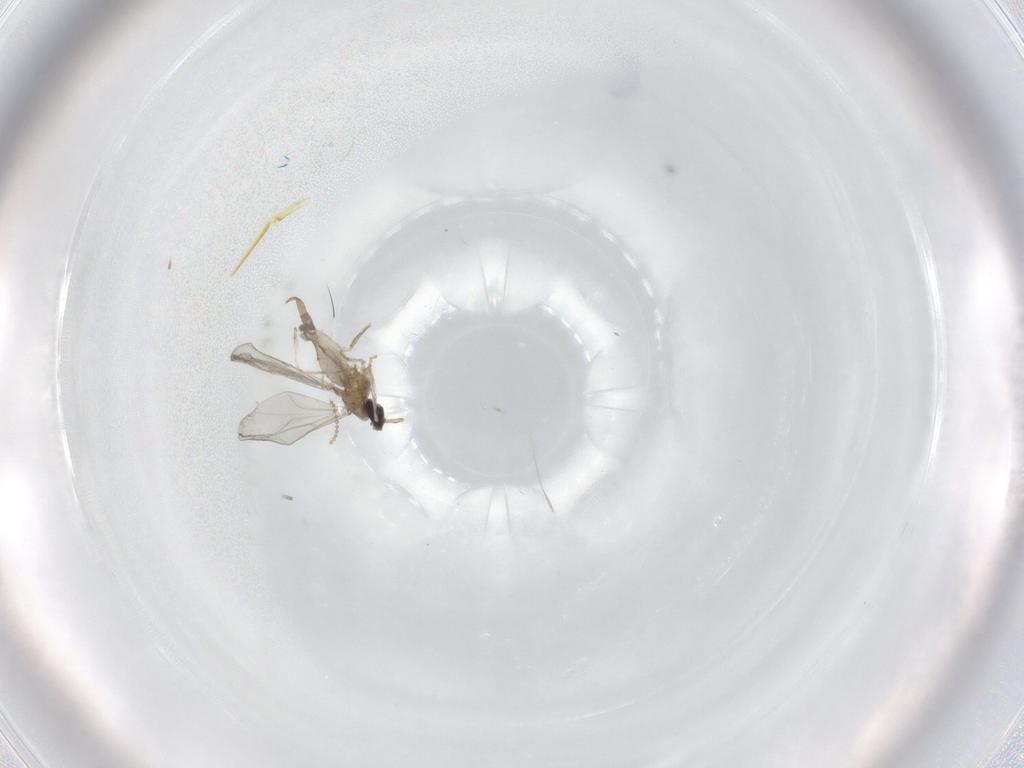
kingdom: Animalia
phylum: Arthropoda
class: Insecta
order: Diptera
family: Cecidomyiidae
